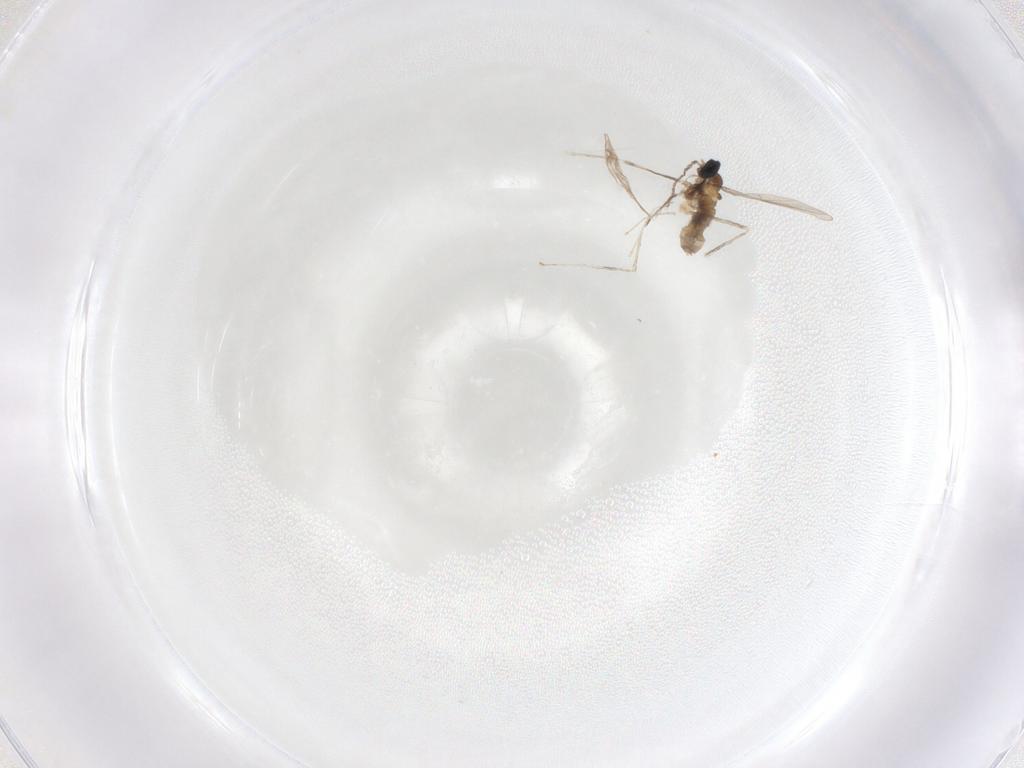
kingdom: Animalia
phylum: Arthropoda
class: Insecta
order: Diptera
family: Cecidomyiidae
